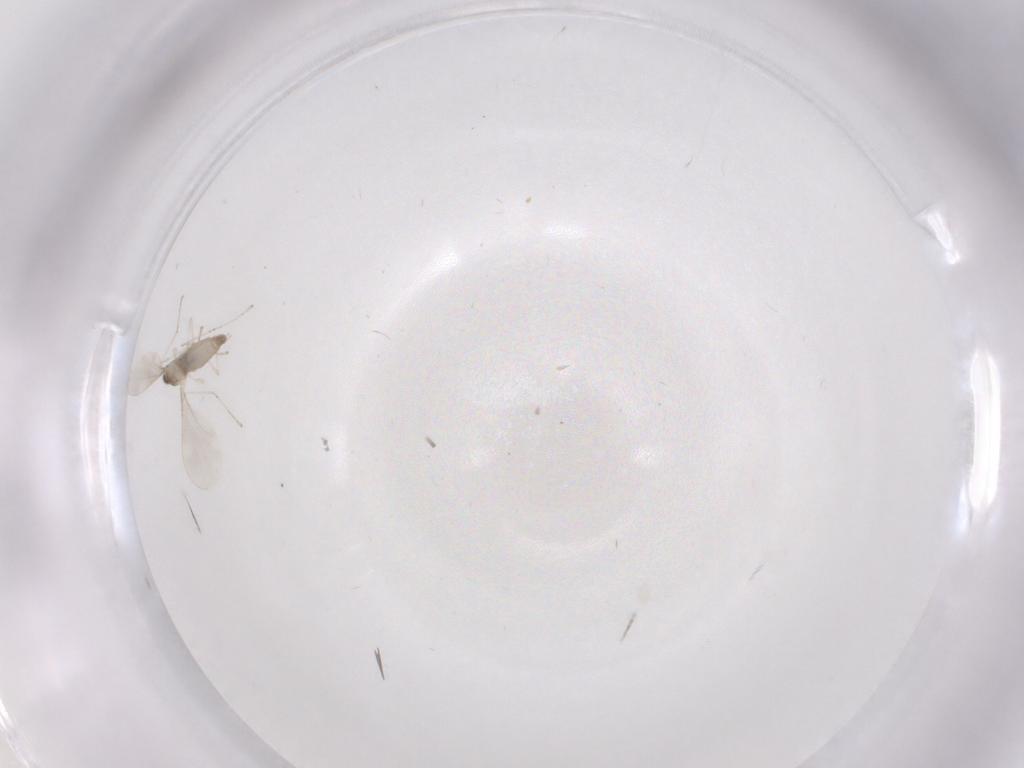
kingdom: Animalia
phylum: Arthropoda
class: Insecta
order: Diptera
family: Cecidomyiidae
